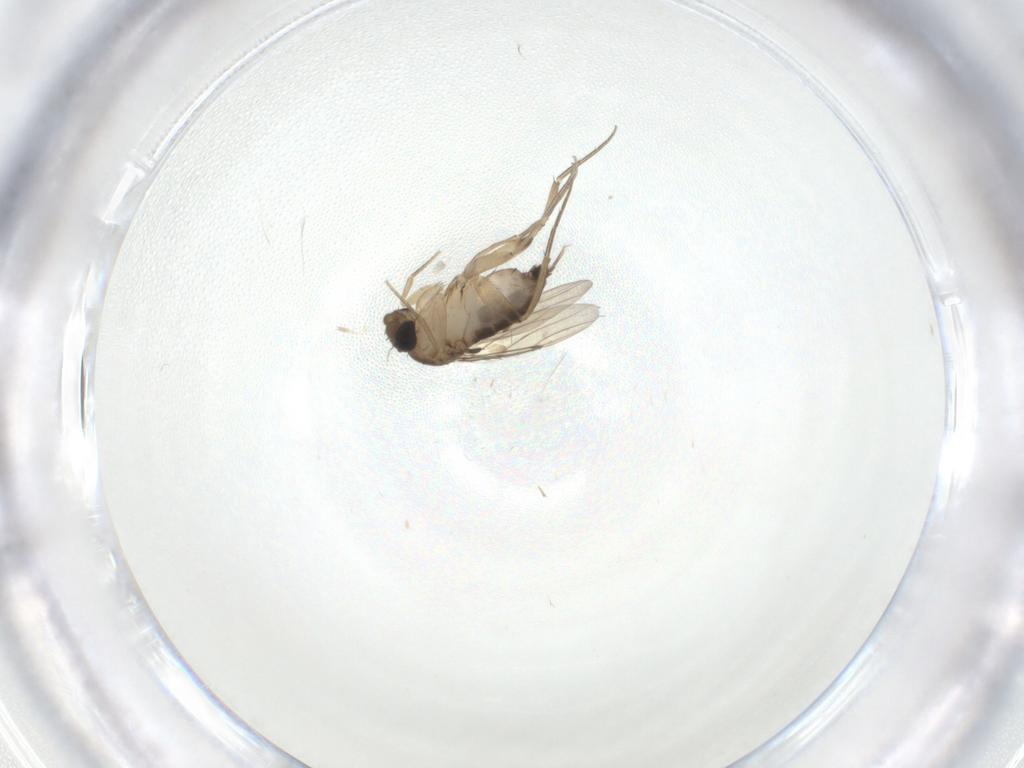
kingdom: Animalia
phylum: Arthropoda
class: Insecta
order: Diptera
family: Phoridae
